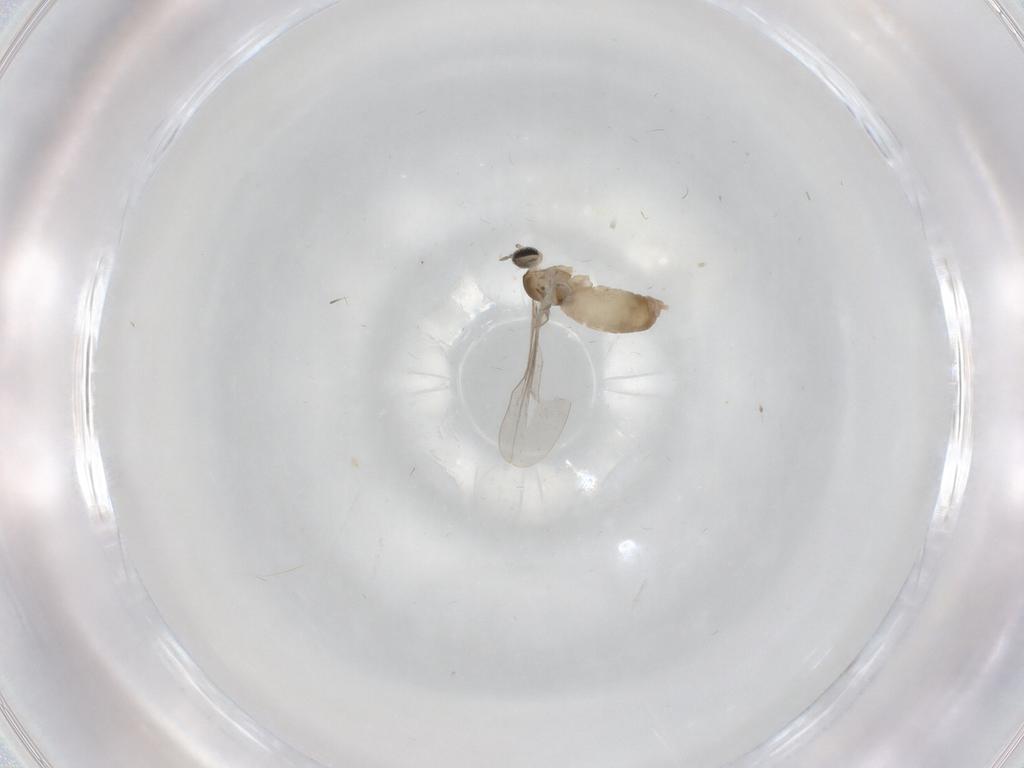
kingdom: Animalia
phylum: Arthropoda
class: Insecta
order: Diptera
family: Cecidomyiidae
